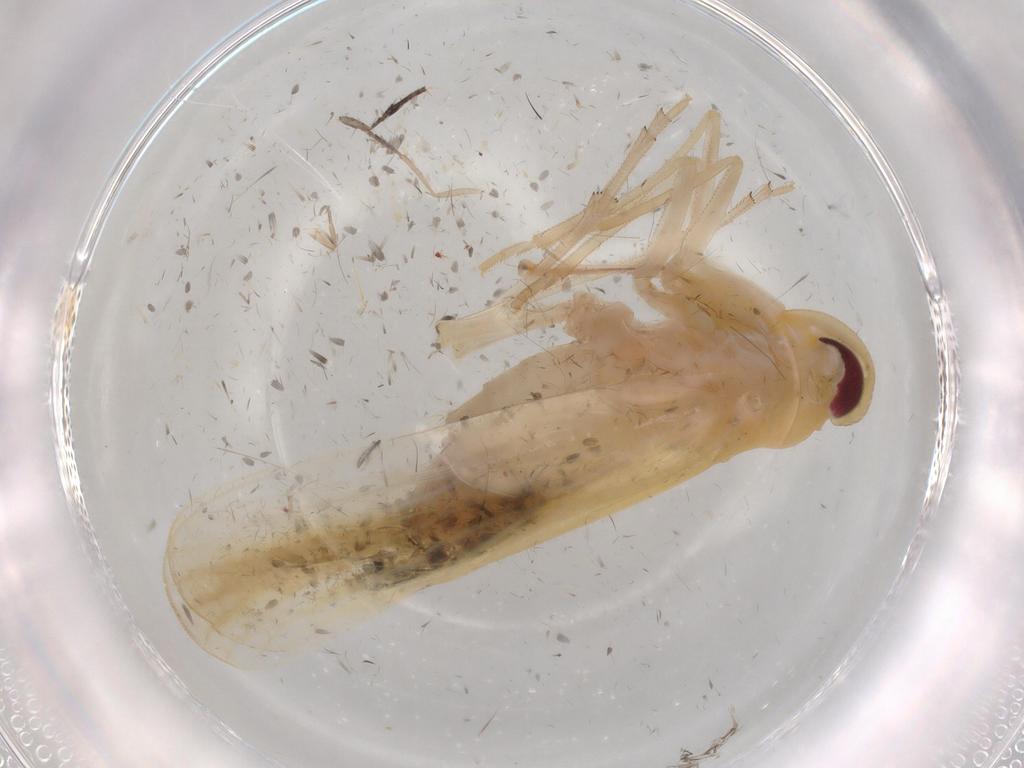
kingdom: Animalia
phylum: Arthropoda
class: Insecta
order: Hemiptera
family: Derbidae
